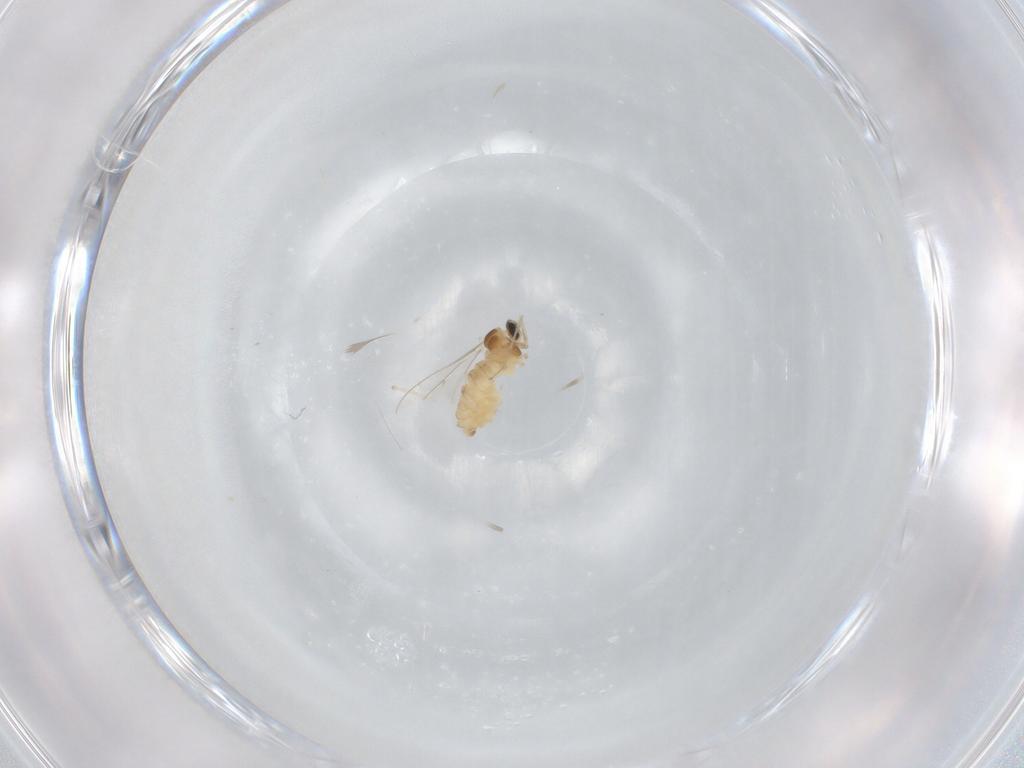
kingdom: Animalia
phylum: Arthropoda
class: Insecta
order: Diptera
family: Cecidomyiidae
